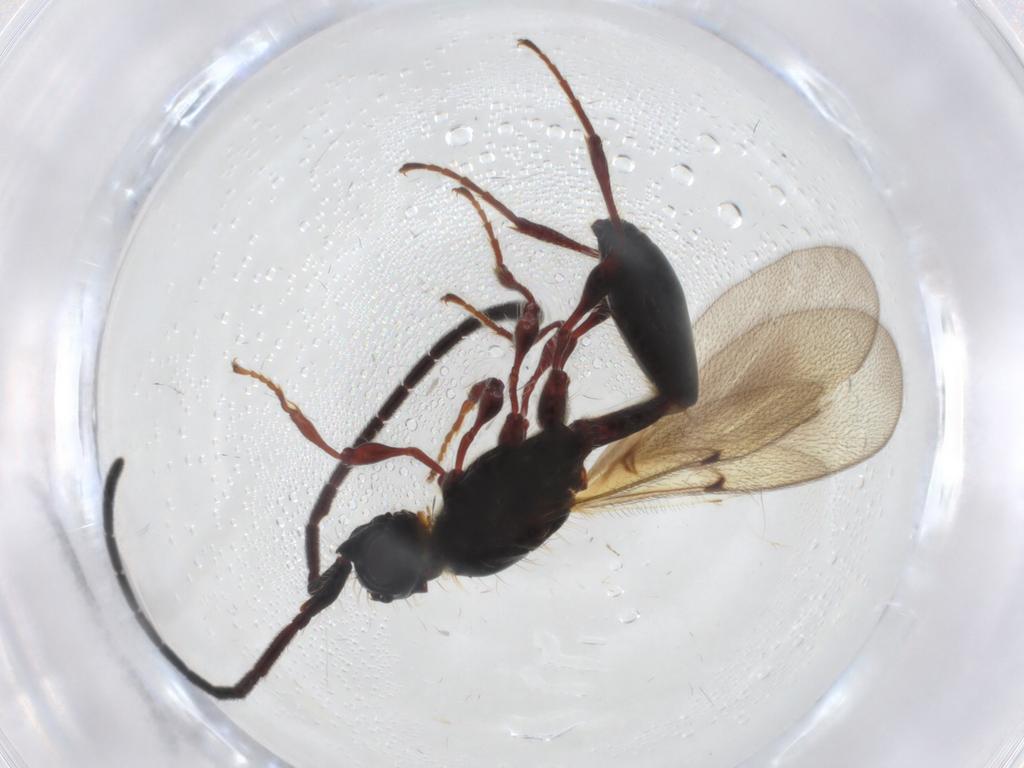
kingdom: Animalia
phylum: Arthropoda
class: Insecta
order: Hymenoptera
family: Diapriidae
